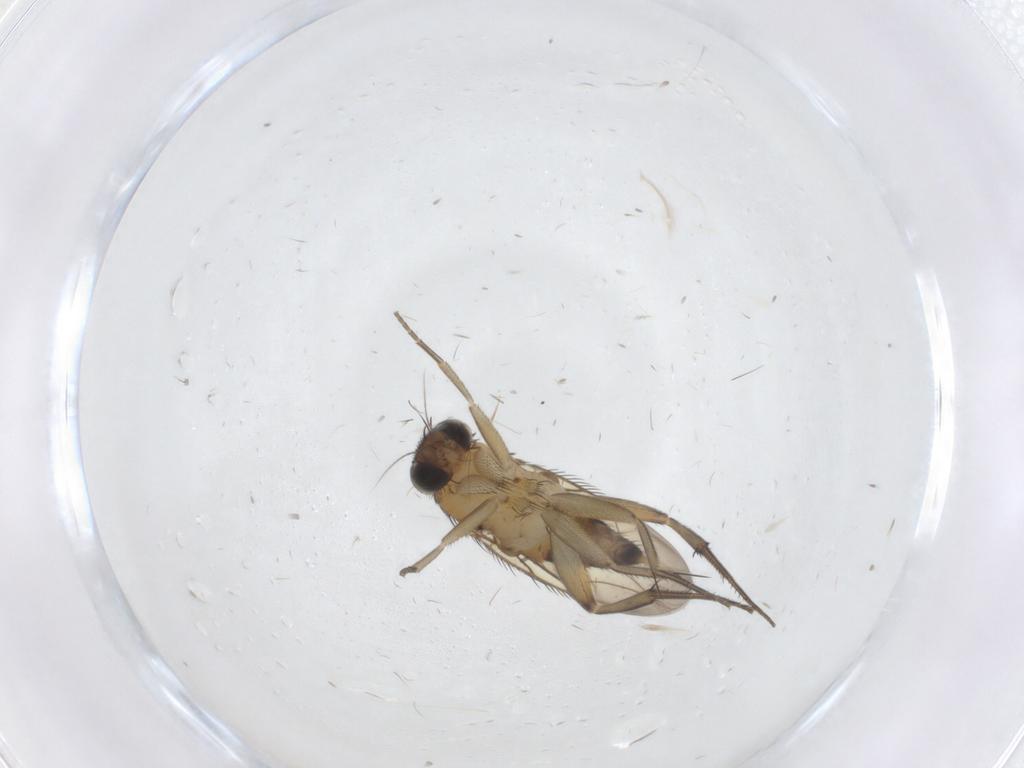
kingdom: Animalia
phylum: Arthropoda
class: Insecta
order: Diptera
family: Phoridae
